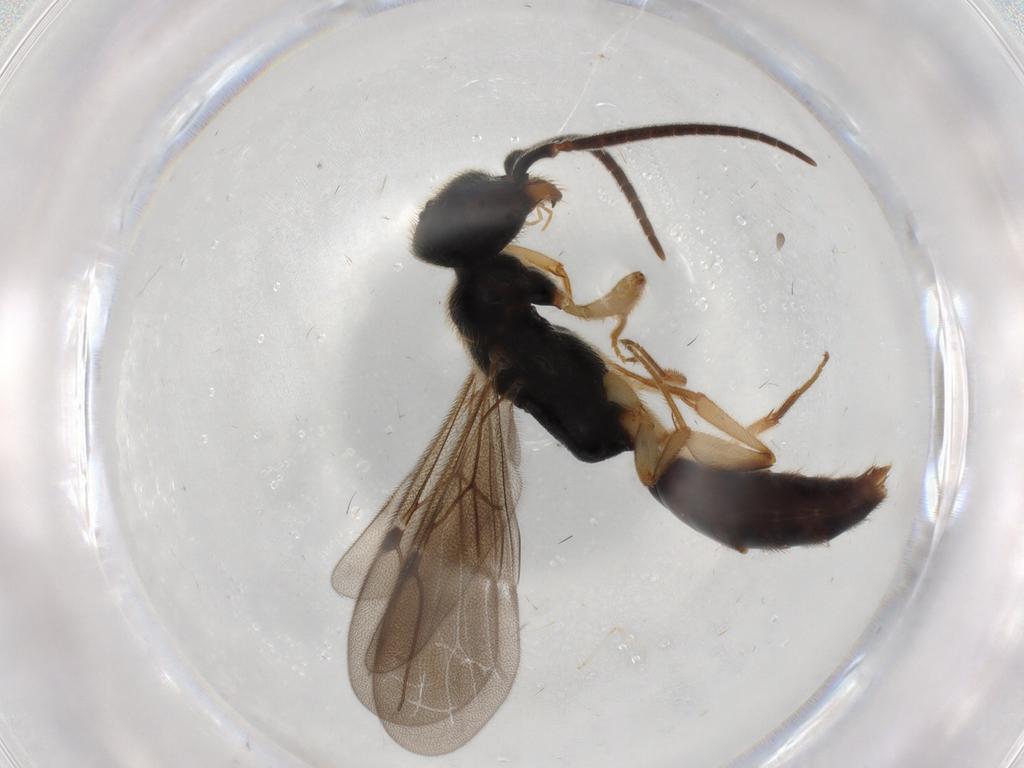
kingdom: Animalia
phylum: Arthropoda
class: Insecta
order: Hymenoptera
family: Bethylidae
